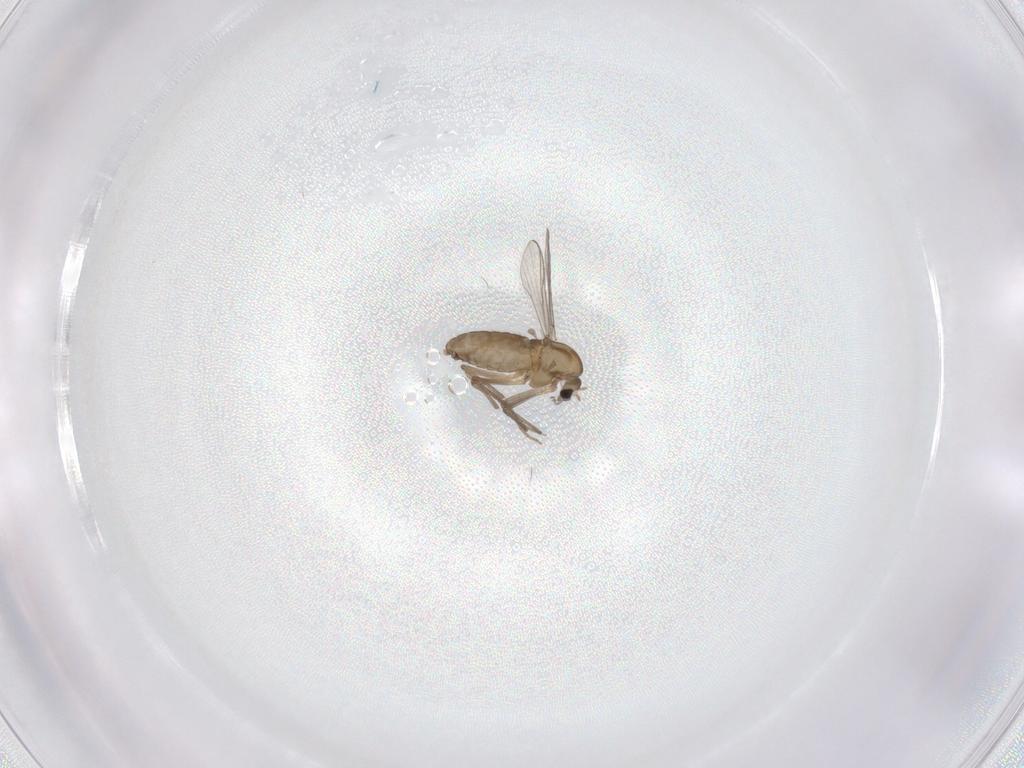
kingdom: Animalia
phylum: Arthropoda
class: Insecta
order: Diptera
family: Chironomidae
